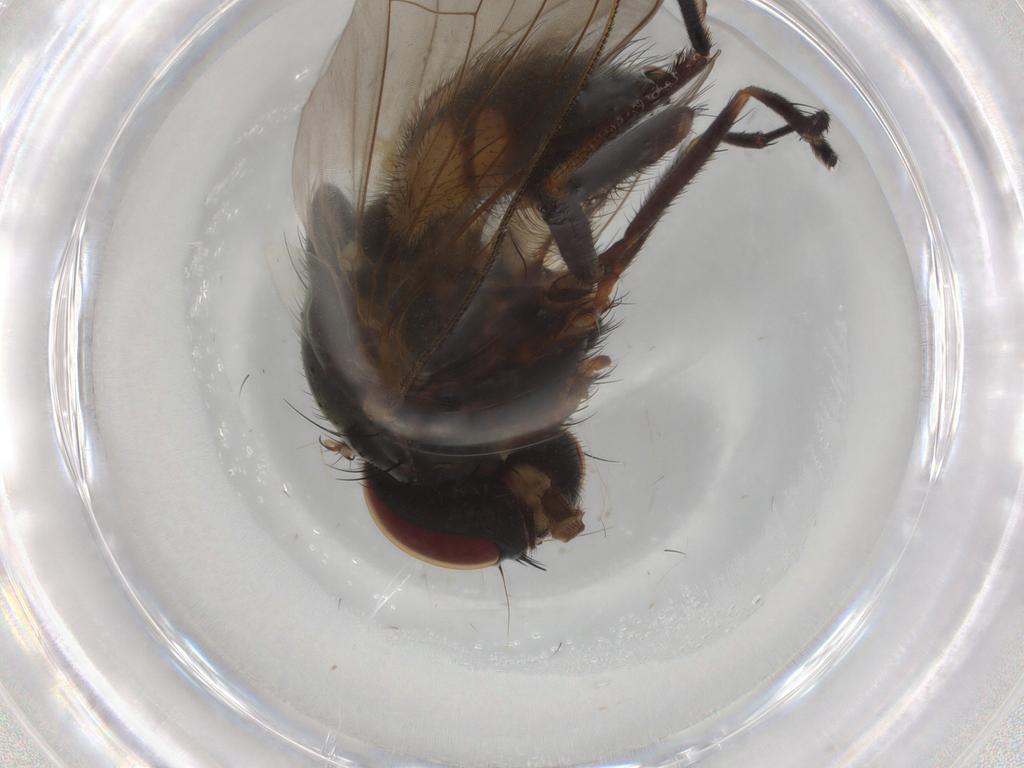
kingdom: Animalia
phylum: Arthropoda
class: Insecta
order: Diptera
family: Fannia
